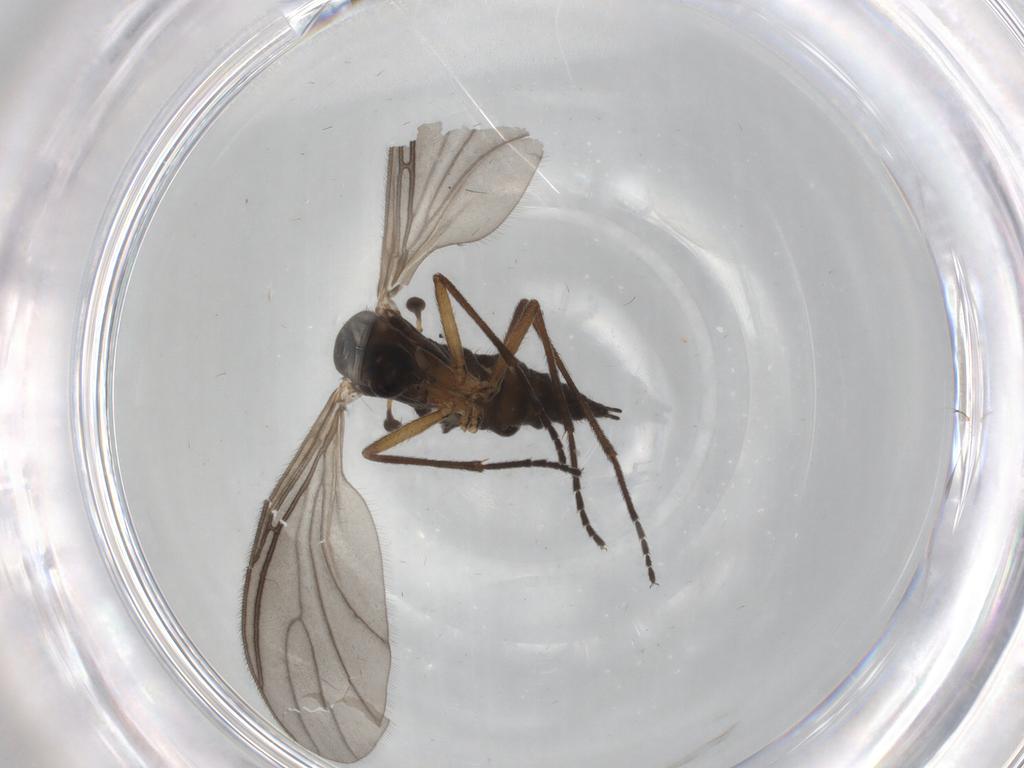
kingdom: Animalia
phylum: Arthropoda
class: Insecta
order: Diptera
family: Sciaridae
